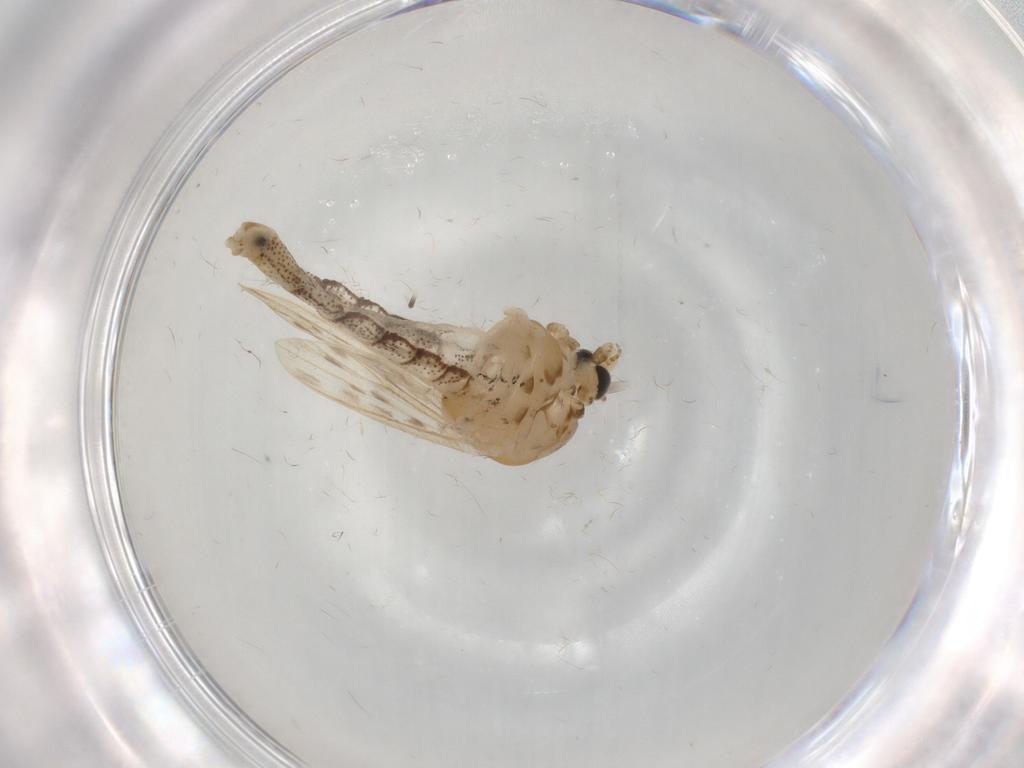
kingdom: Animalia
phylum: Arthropoda
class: Insecta
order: Diptera
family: Chaoboridae
